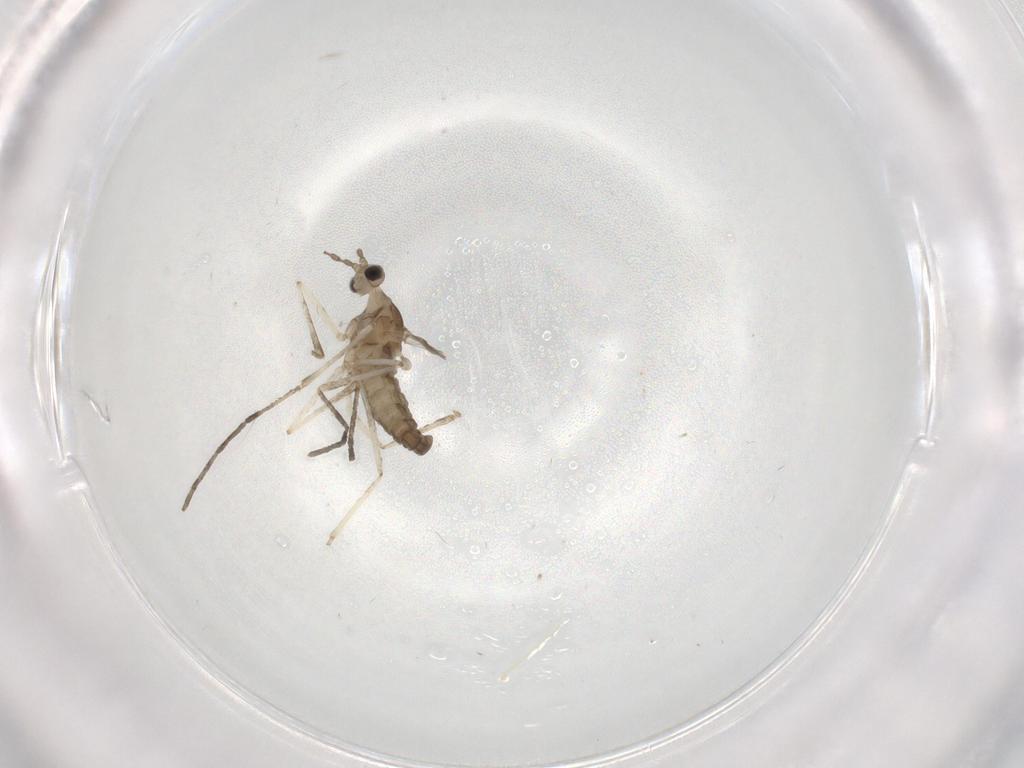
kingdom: Animalia
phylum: Arthropoda
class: Insecta
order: Diptera
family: Cecidomyiidae
